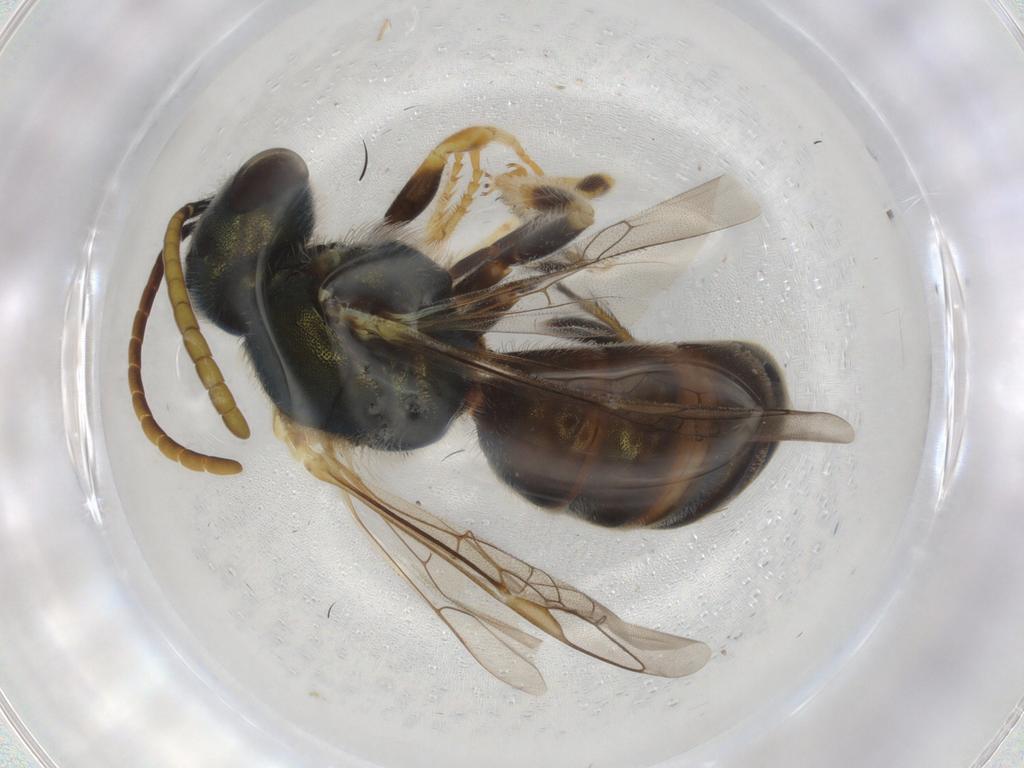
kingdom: Animalia
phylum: Arthropoda
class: Insecta
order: Hymenoptera
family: Halictidae
